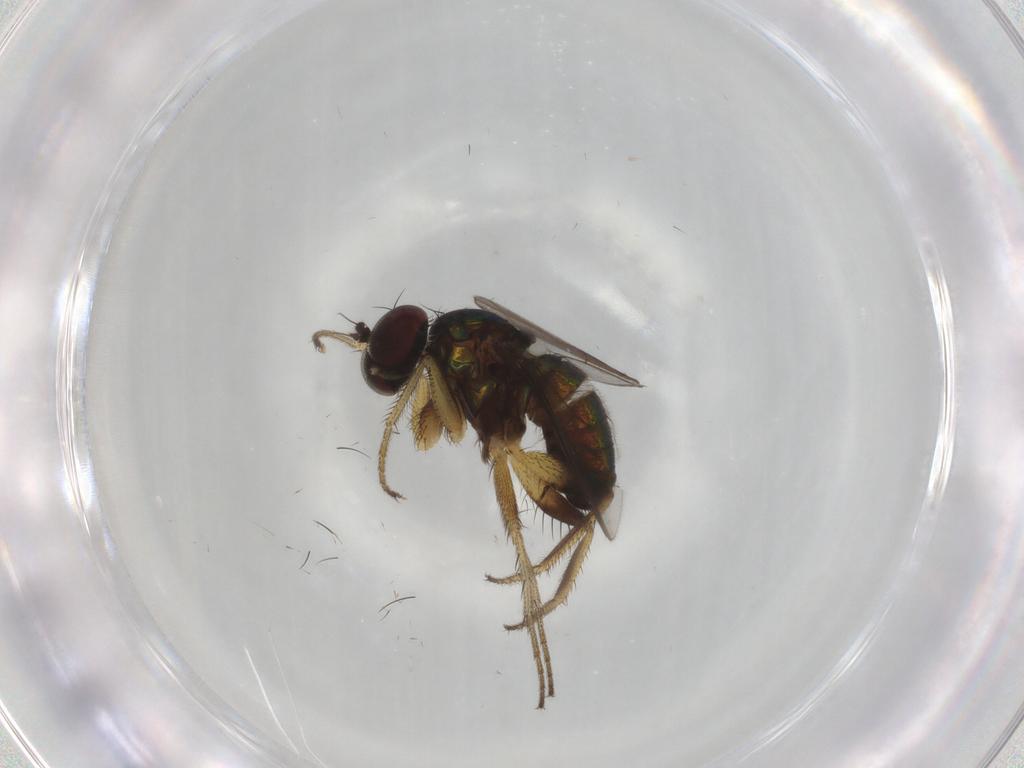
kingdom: Animalia
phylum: Arthropoda
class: Insecta
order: Diptera
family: Dolichopodidae
